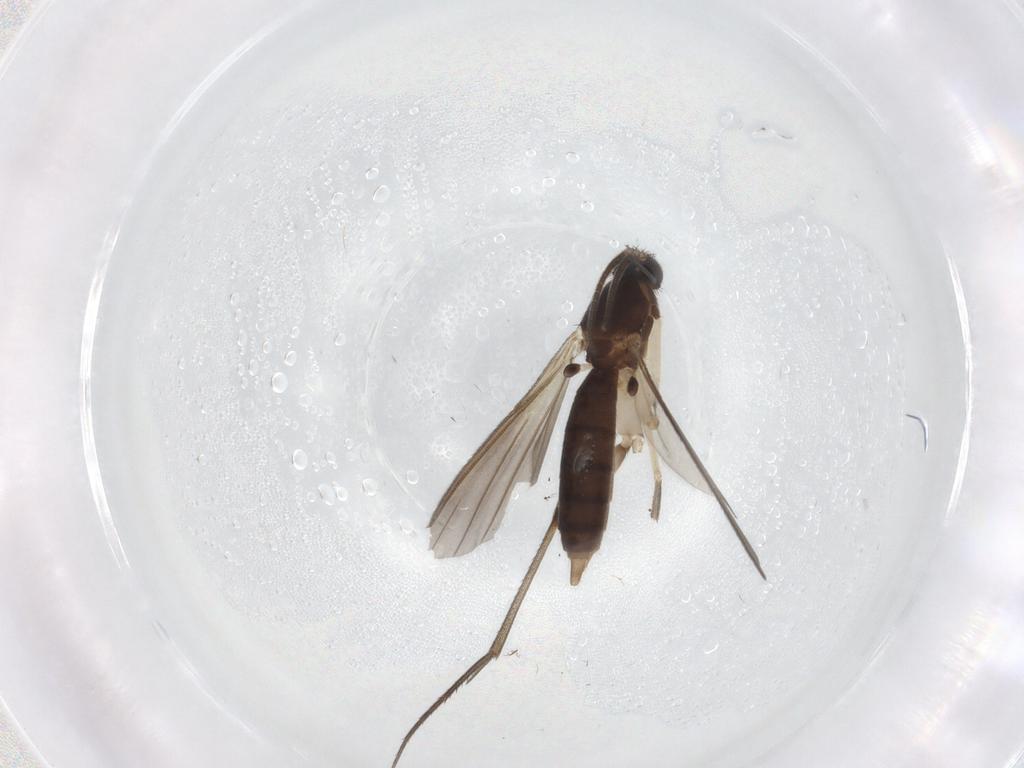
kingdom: Animalia
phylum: Arthropoda
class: Insecta
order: Diptera
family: Mycetophilidae
